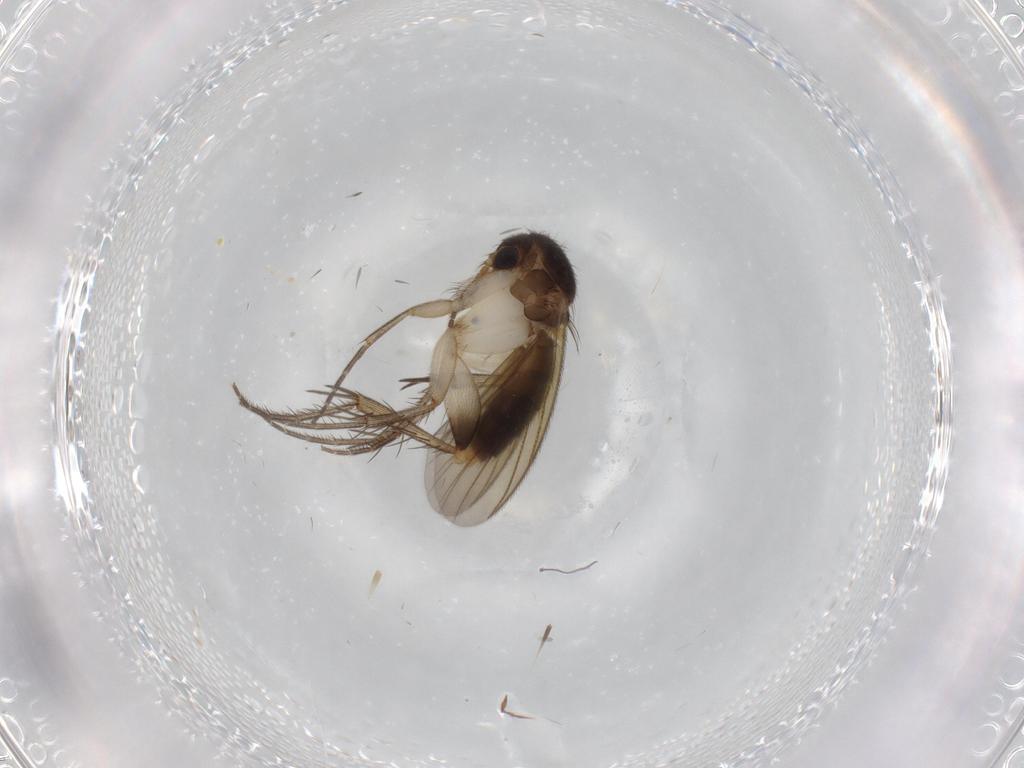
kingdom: Animalia
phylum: Arthropoda
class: Insecta
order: Diptera
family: Mycetophilidae
